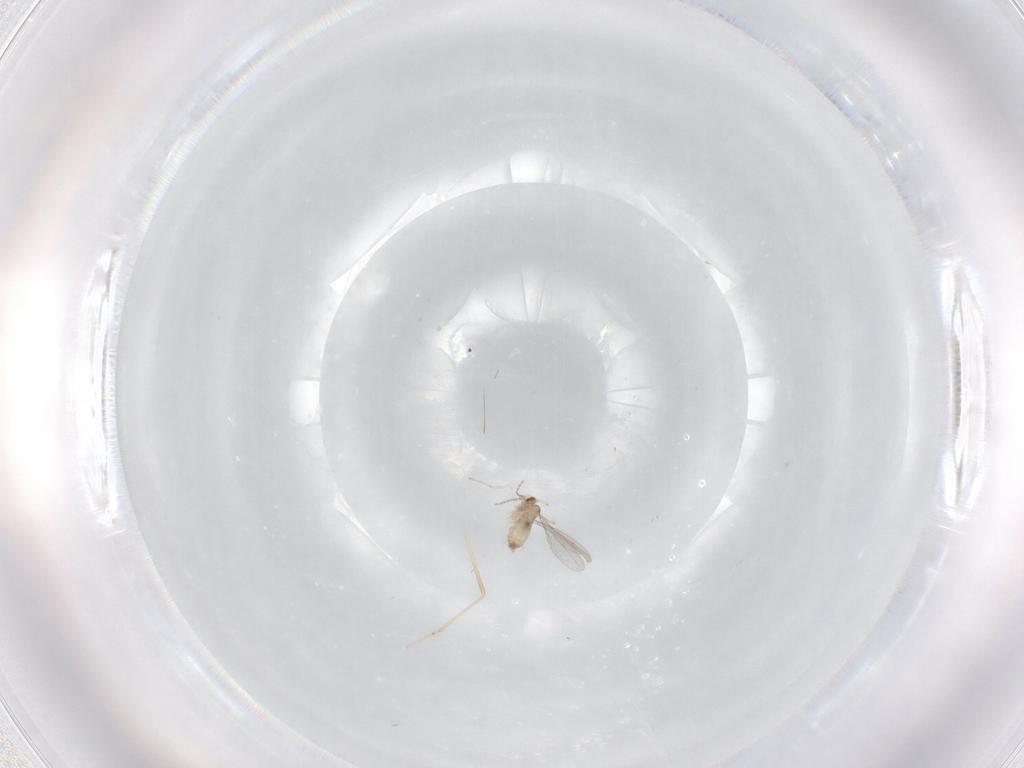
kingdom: Animalia
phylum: Arthropoda
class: Insecta
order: Diptera
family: Cecidomyiidae
